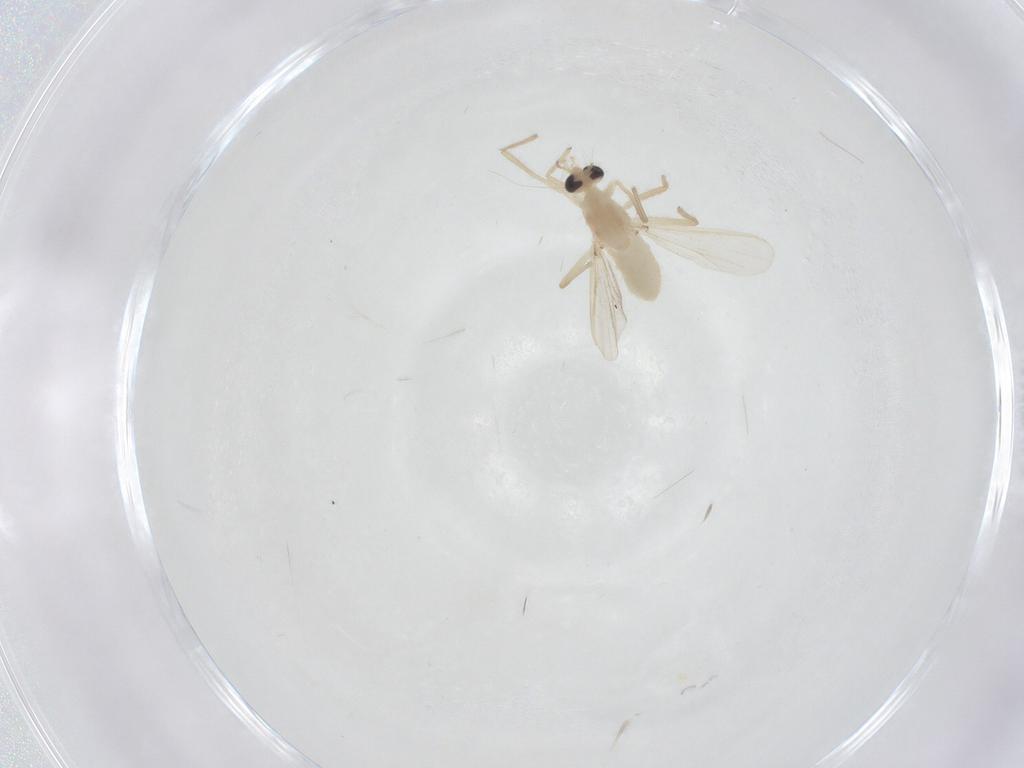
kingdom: Animalia
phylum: Arthropoda
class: Insecta
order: Diptera
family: Chironomidae
